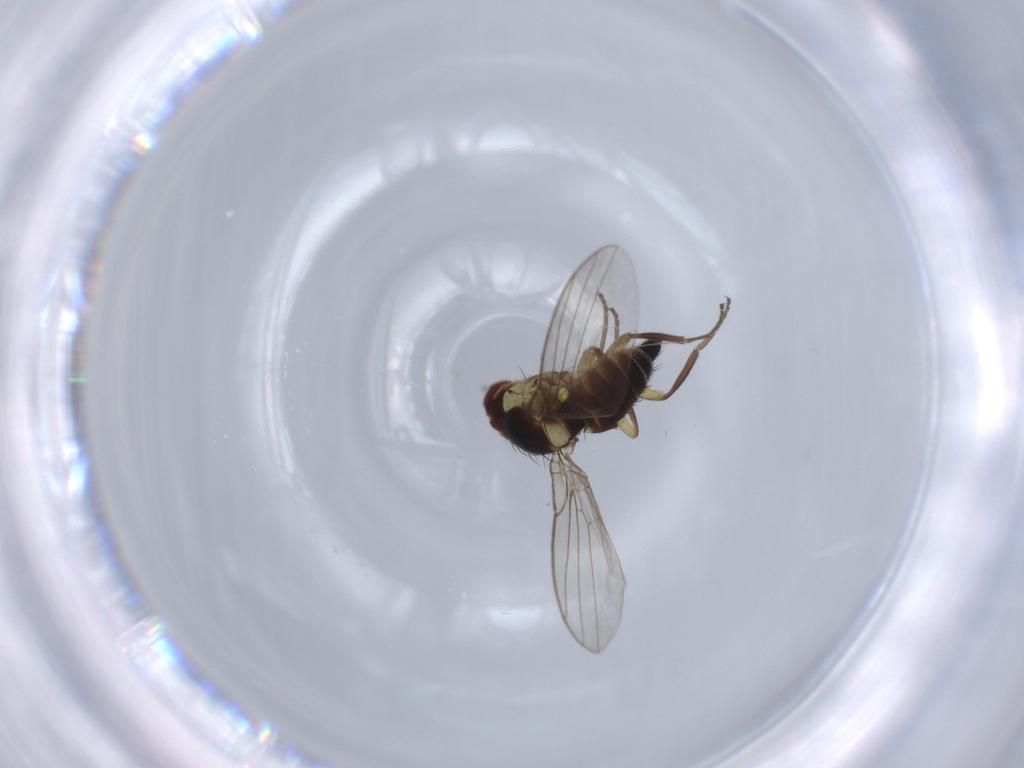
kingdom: Animalia
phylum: Arthropoda
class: Insecta
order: Diptera
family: Agromyzidae
